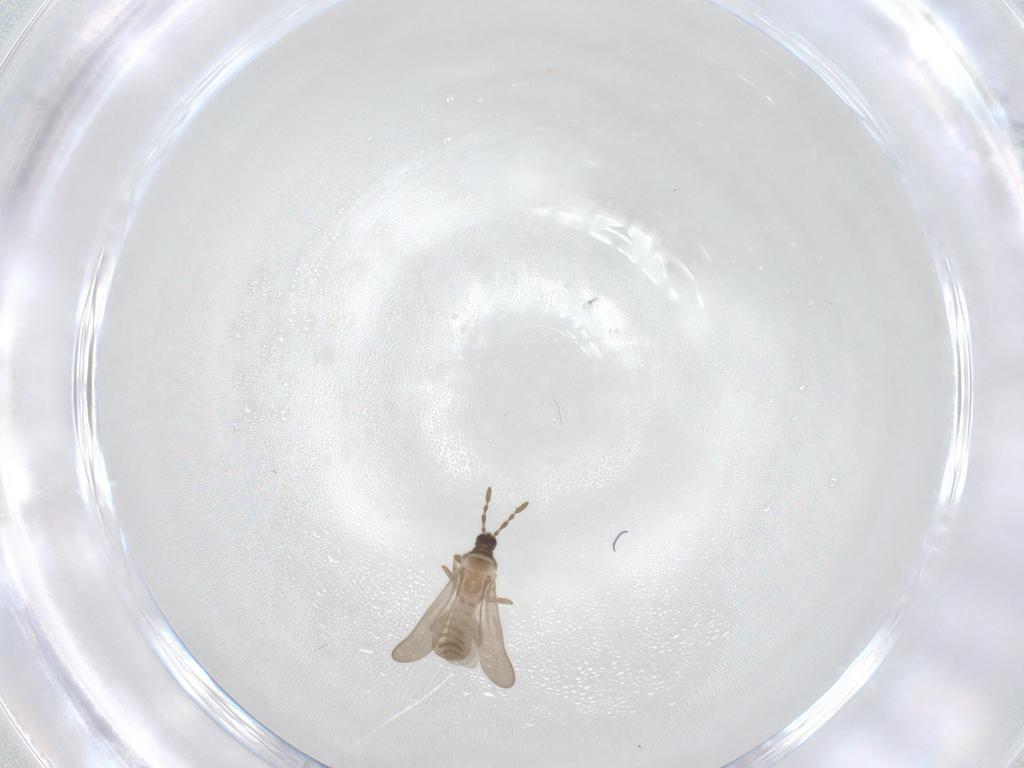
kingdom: Animalia
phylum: Arthropoda
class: Insecta
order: Hemiptera
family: Enicocephalidae
